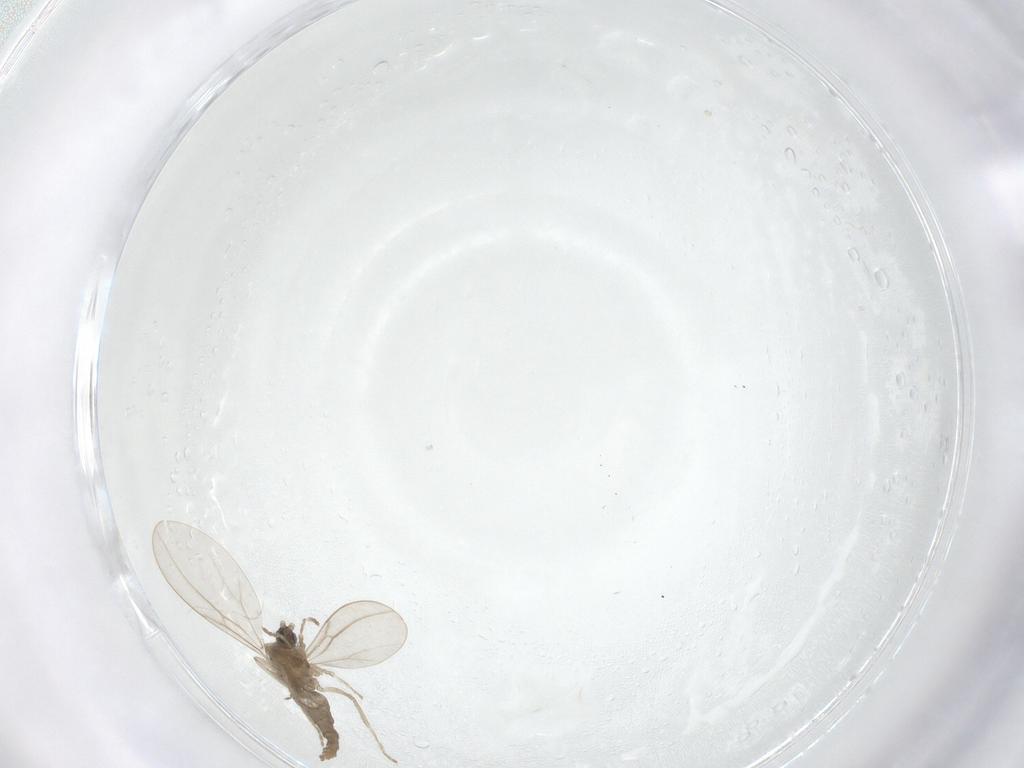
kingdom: Animalia
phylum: Arthropoda
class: Insecta
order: Diptera
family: Cecidomyiidae
